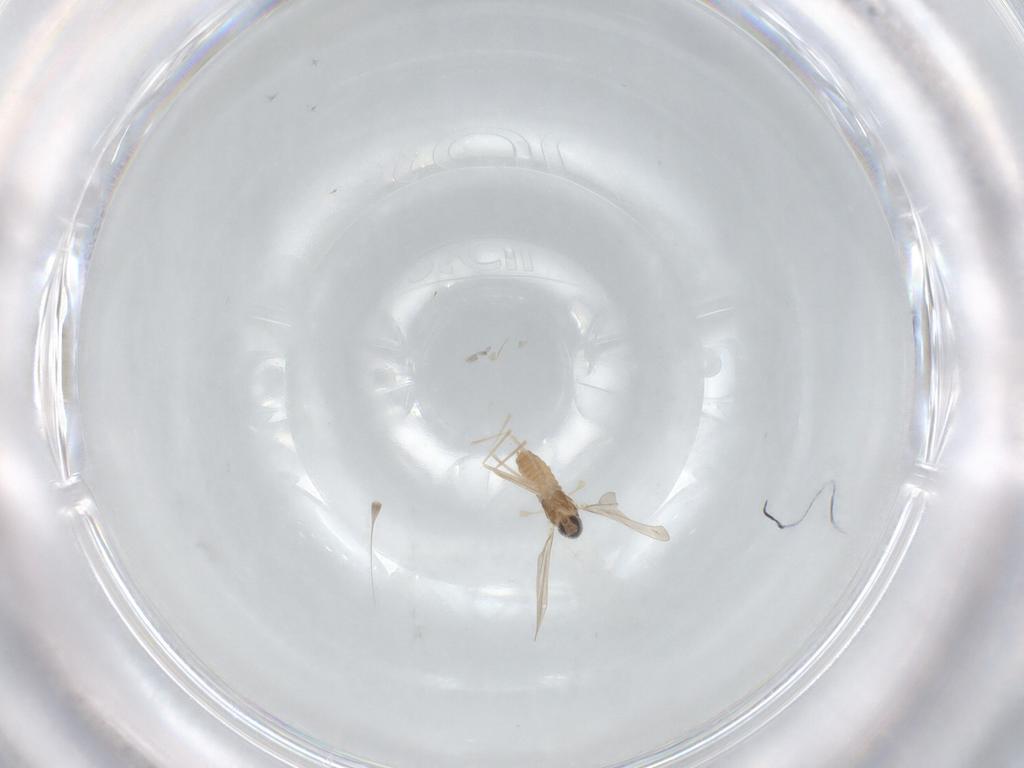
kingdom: Animalia
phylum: Arthropoda
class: Insecta
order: Diptera
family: Cecidomyiidae
